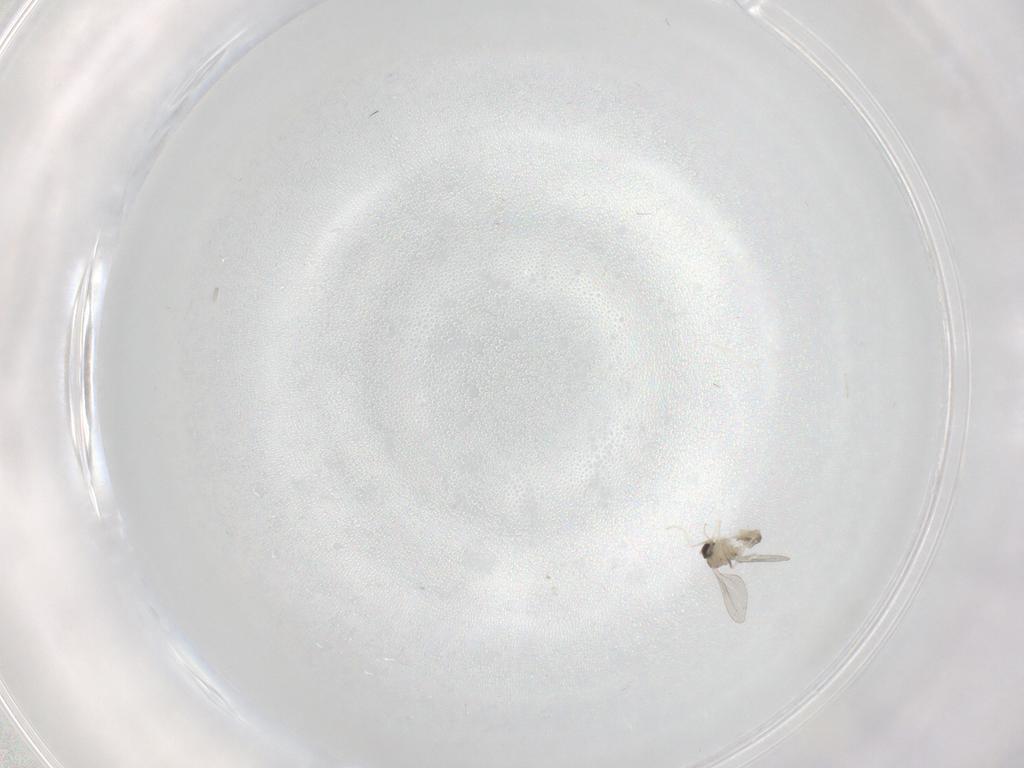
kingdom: Animalia
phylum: Arthropoda
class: Insecta
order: Diptera
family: Cecidomyiidae
